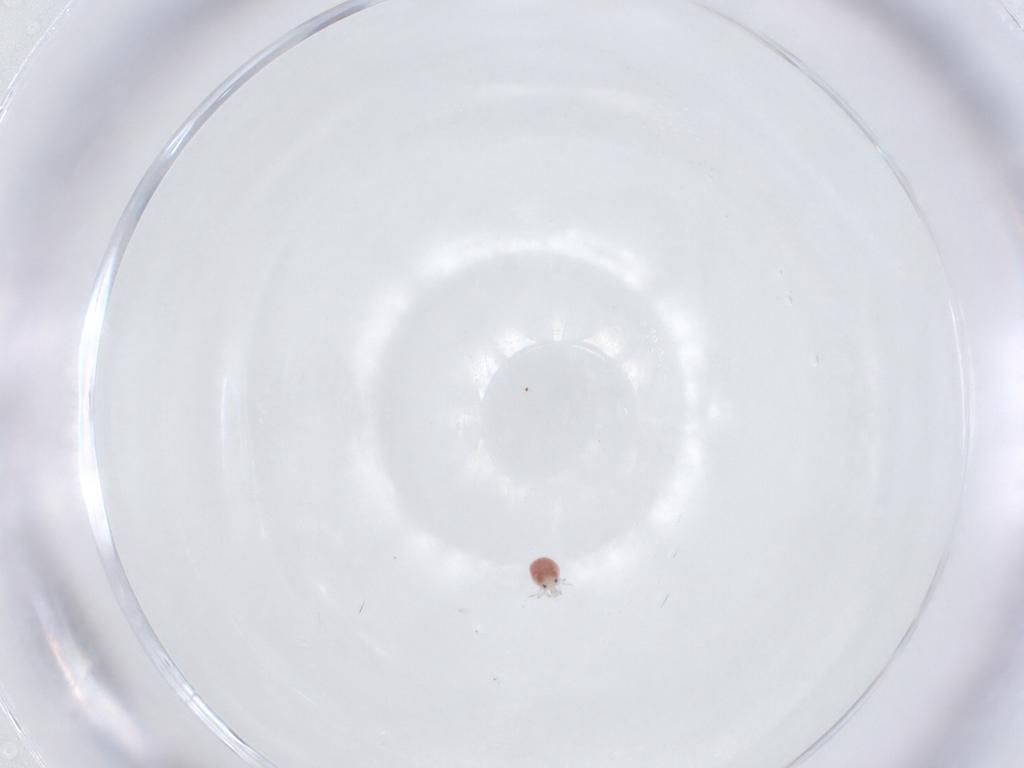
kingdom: Animalia
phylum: Arthropoda
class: Arachnida
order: Trombidiformes
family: Pionidae
